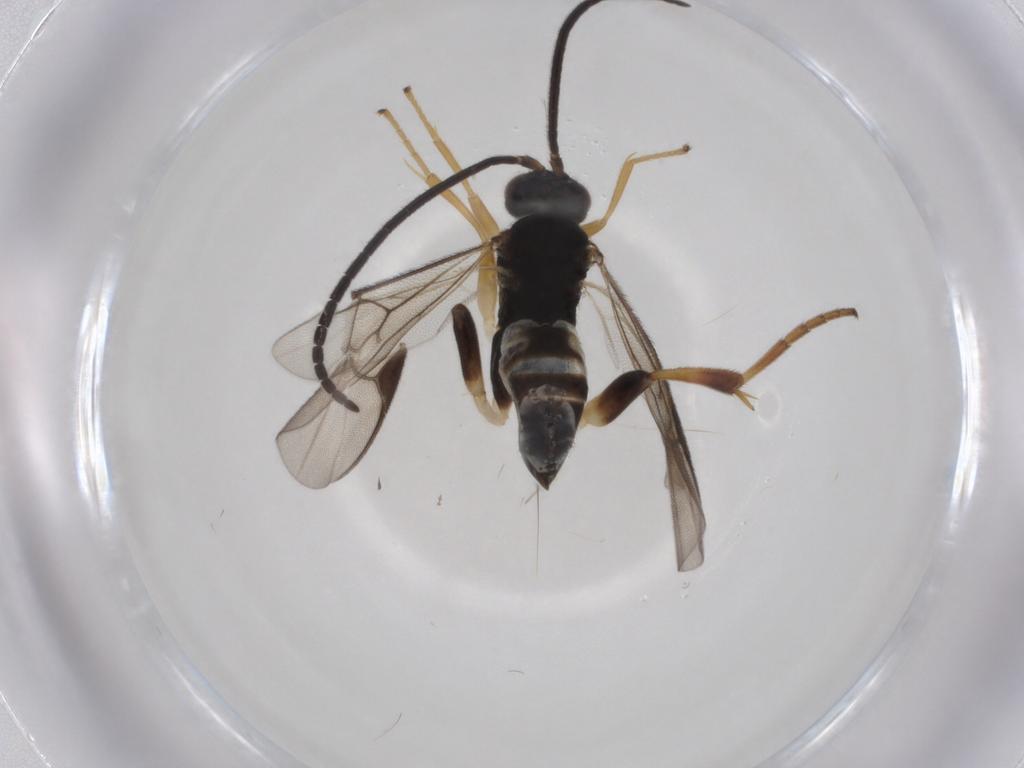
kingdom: Animalia
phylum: Arthropoda
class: Insecta
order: Hymenoptera
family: Braconidae
